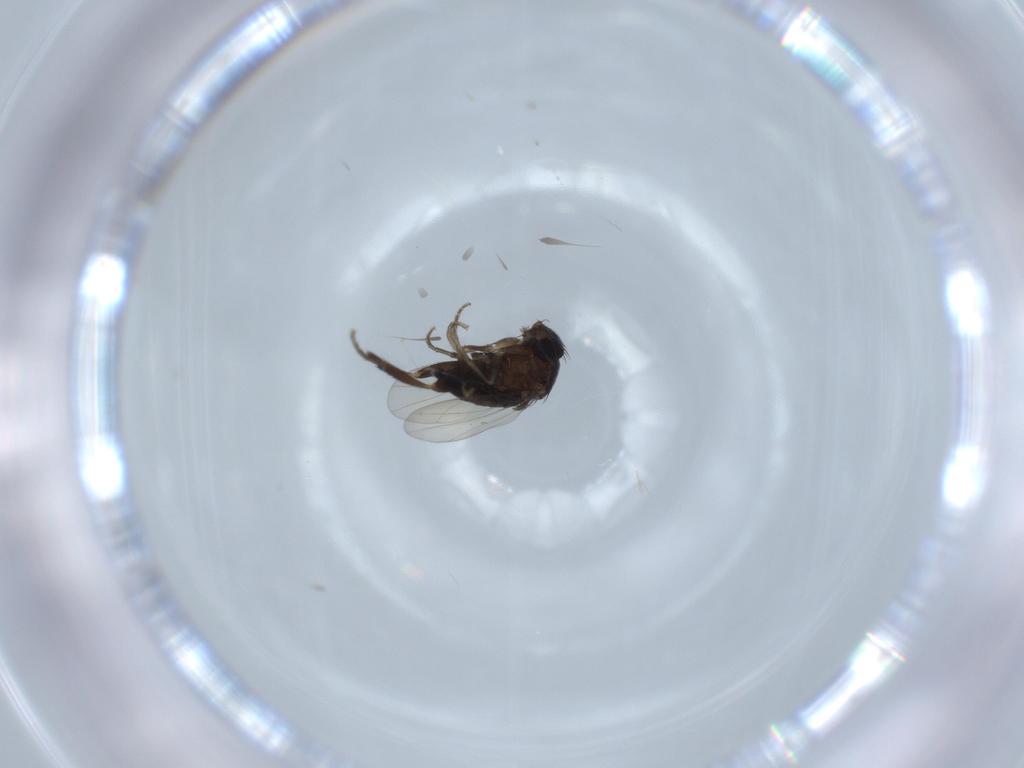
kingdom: Animalia
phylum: Arthropoda
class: Insecta
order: Diptera
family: Phoridae
